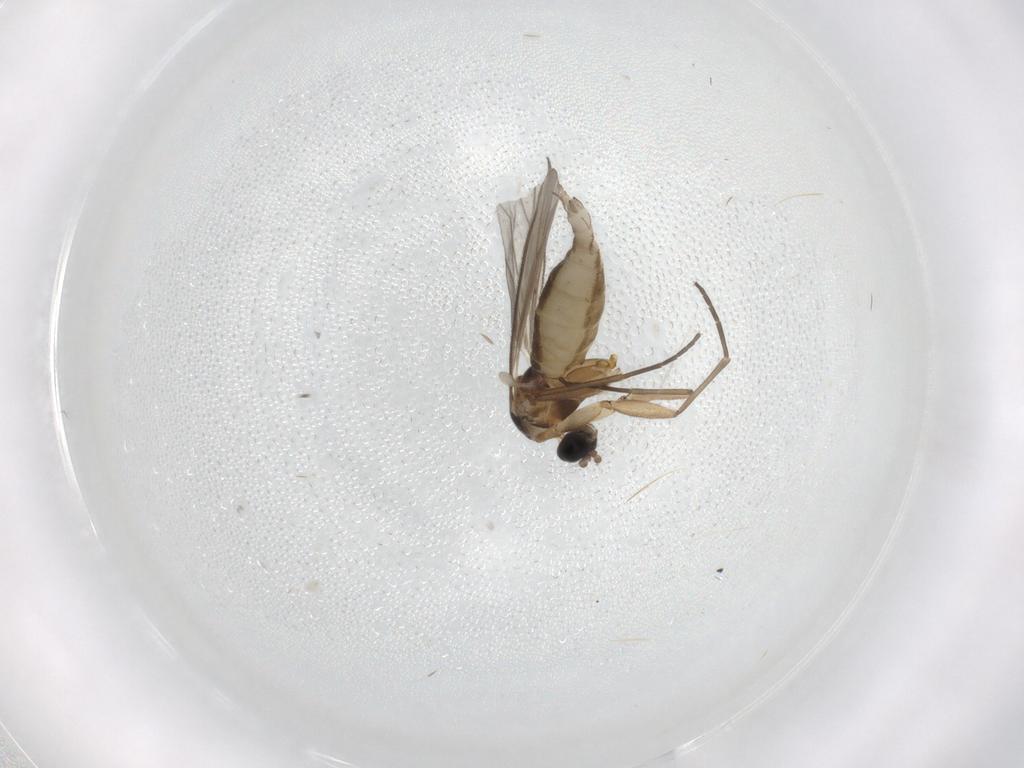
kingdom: Animalia
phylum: Arthropoda
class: Insecta
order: Diptera
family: Sciaridae
